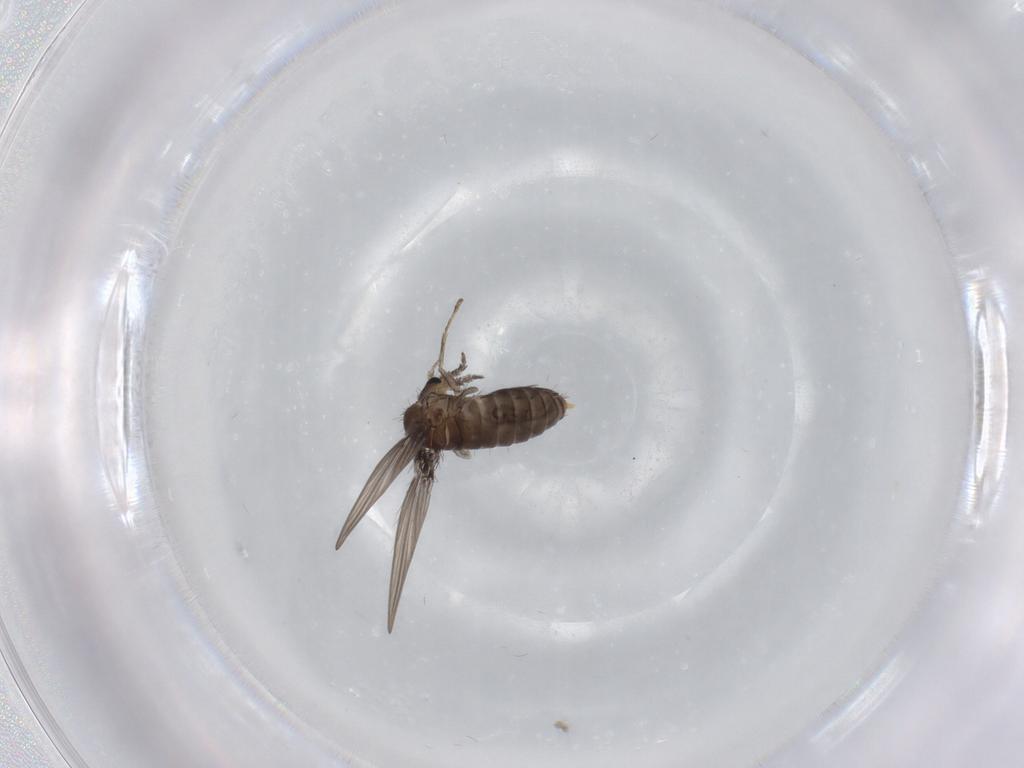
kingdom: Animalia
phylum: Arthropoda
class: Insecta
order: Diptera
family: Psychodidae
